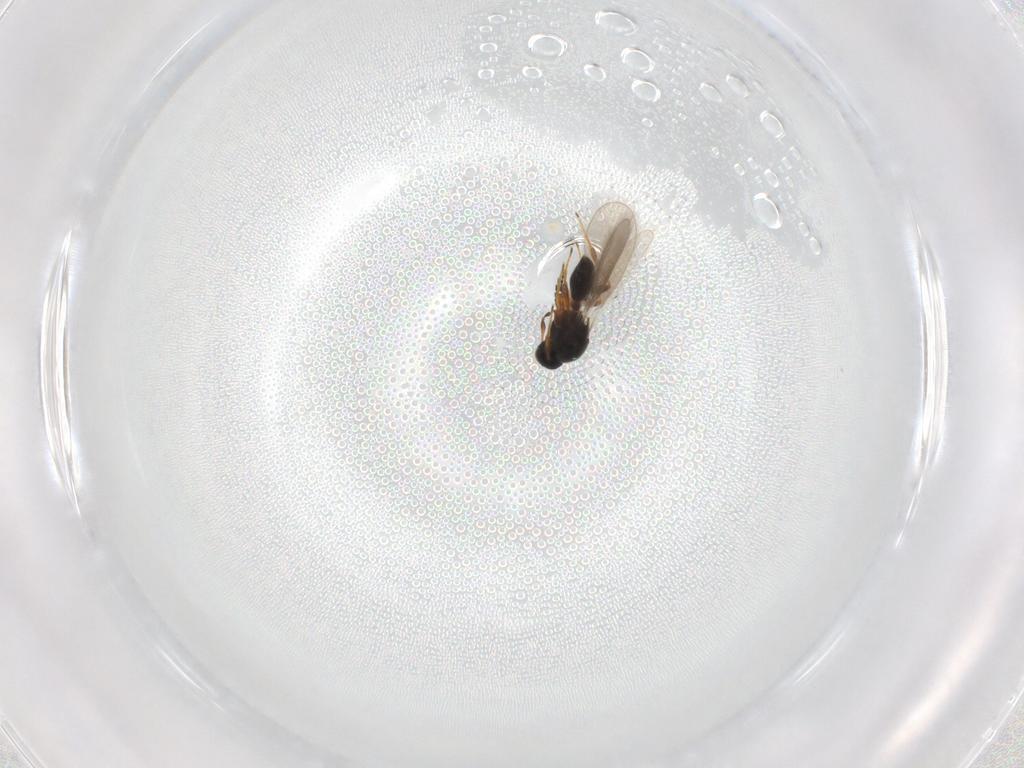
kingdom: Animalia
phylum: Arthropoda
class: Insecta
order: Hymenoptera
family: Platygastridae
